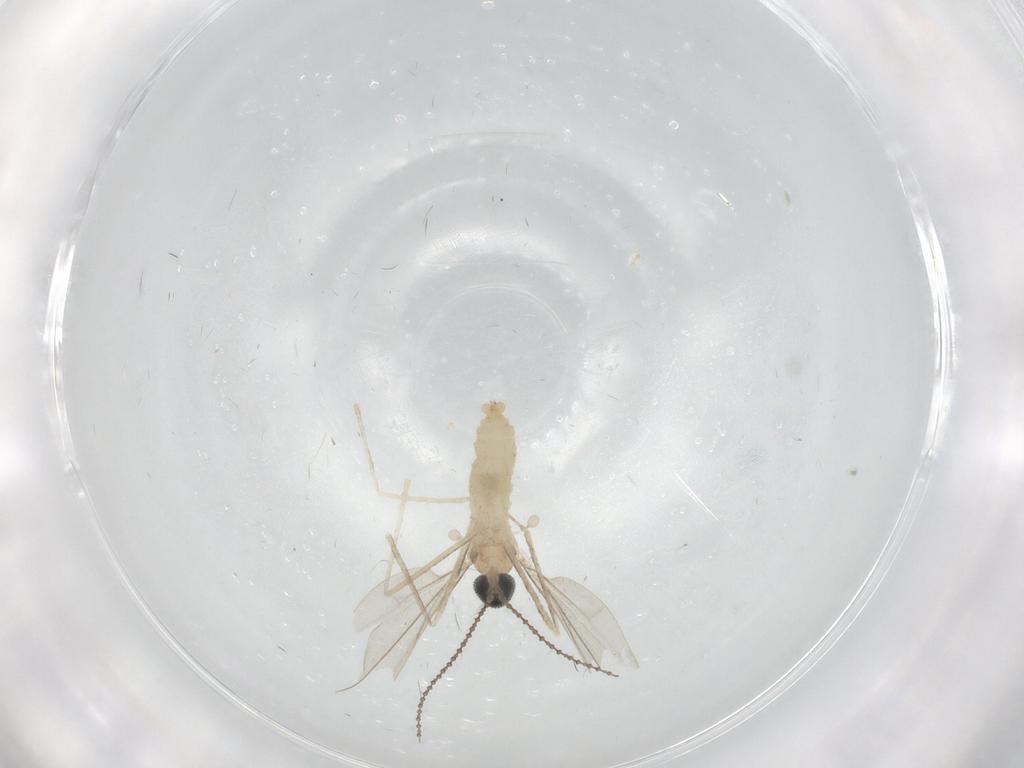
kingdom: Animalia
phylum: Arthropoda
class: Insecta
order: Diptera
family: Cecidomyiidae
